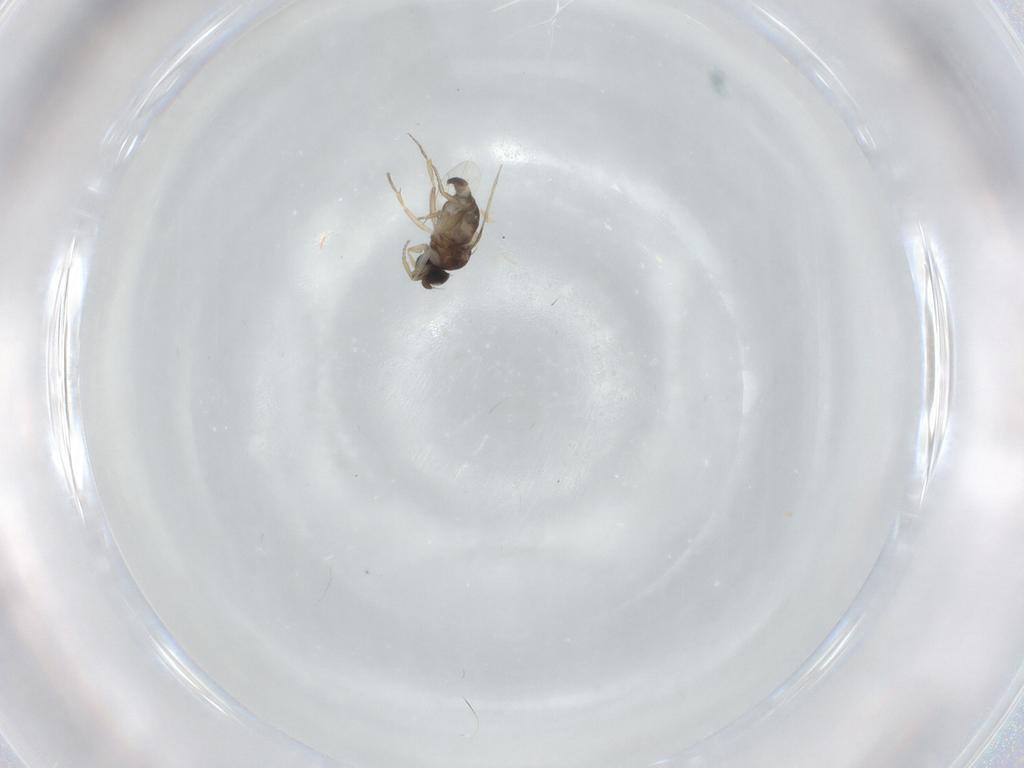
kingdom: Animalia
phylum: Arthropoda
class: Insecta
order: Diptera
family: Phoridae
